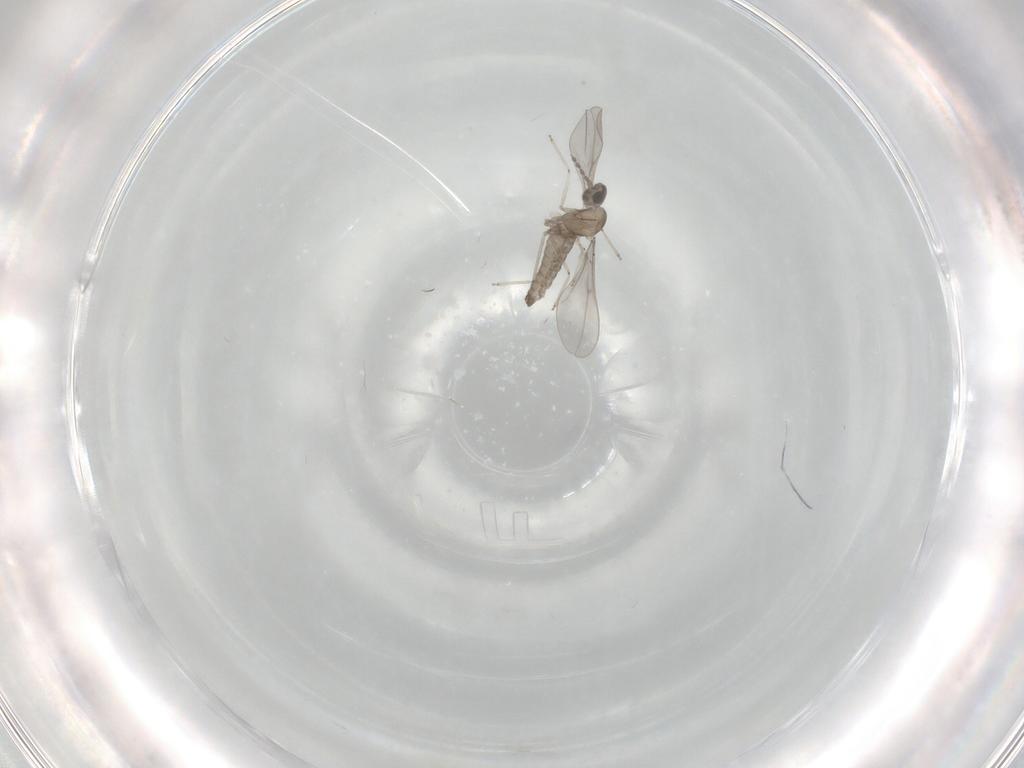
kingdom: Animalia
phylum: Arthropoda
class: Insecta
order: Diptera
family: Cecidomyiidae
